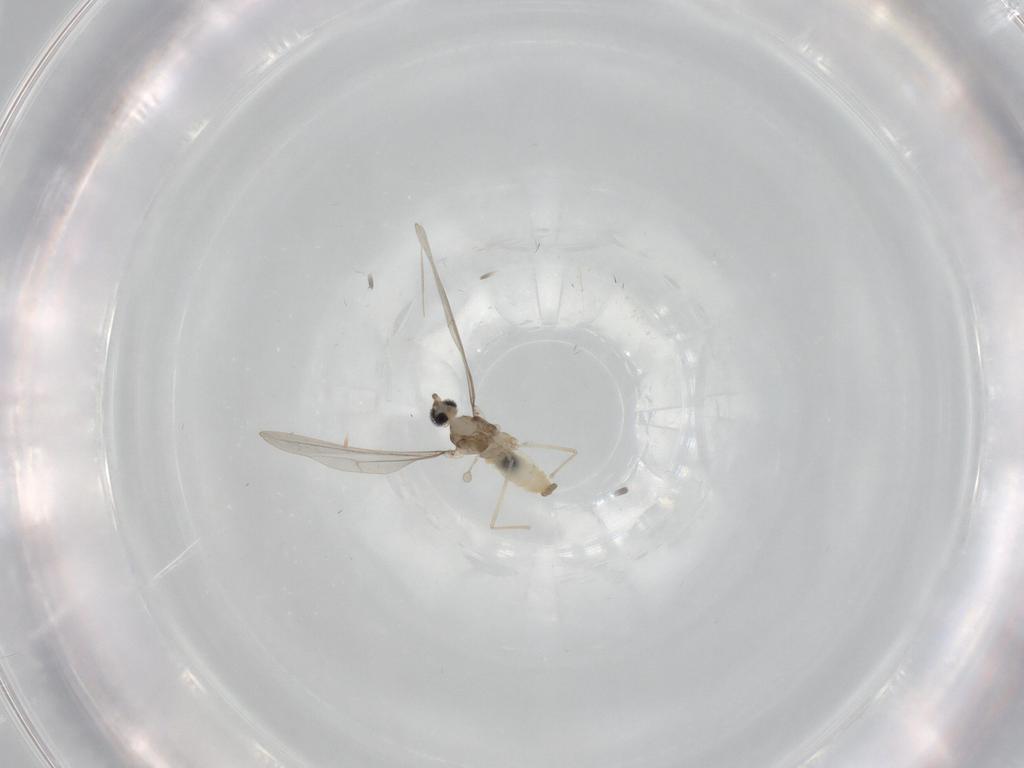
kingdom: Animalia
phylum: Arthropoda
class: Insecta
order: Diptera
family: Cecidomyiidae
